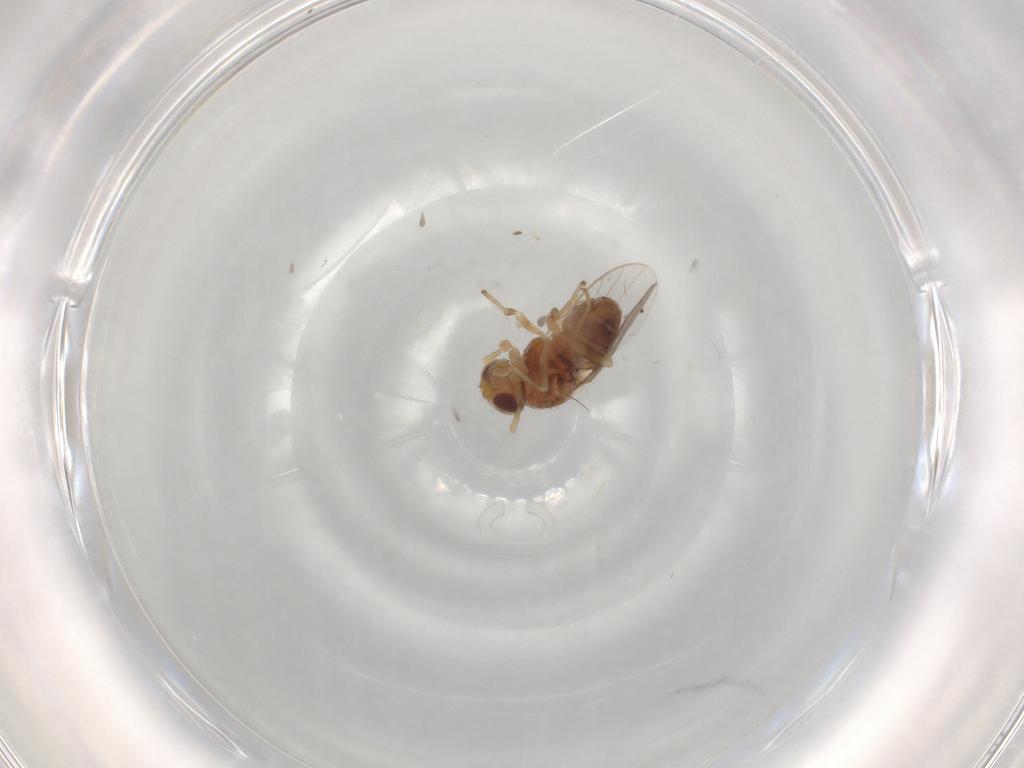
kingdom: Animalia
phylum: Arthropoda
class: Insecta
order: Diptera
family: Psychodidae
